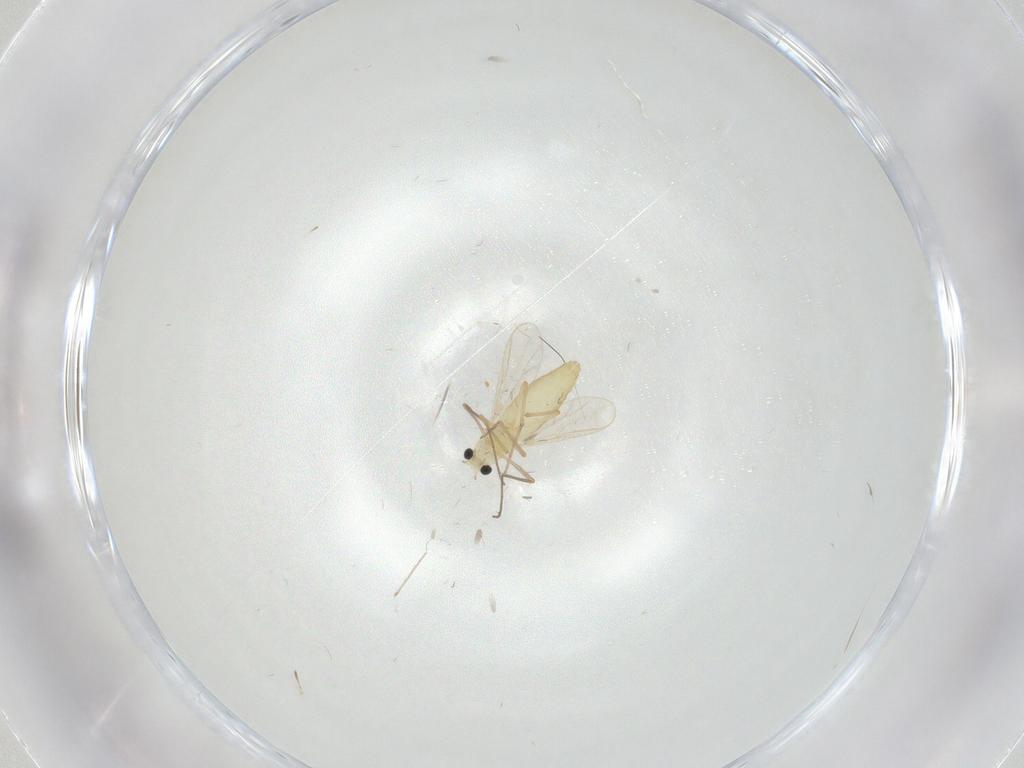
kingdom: Animalia
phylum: Arthropoda
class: Insecta
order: Diptera
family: Chironomidae
